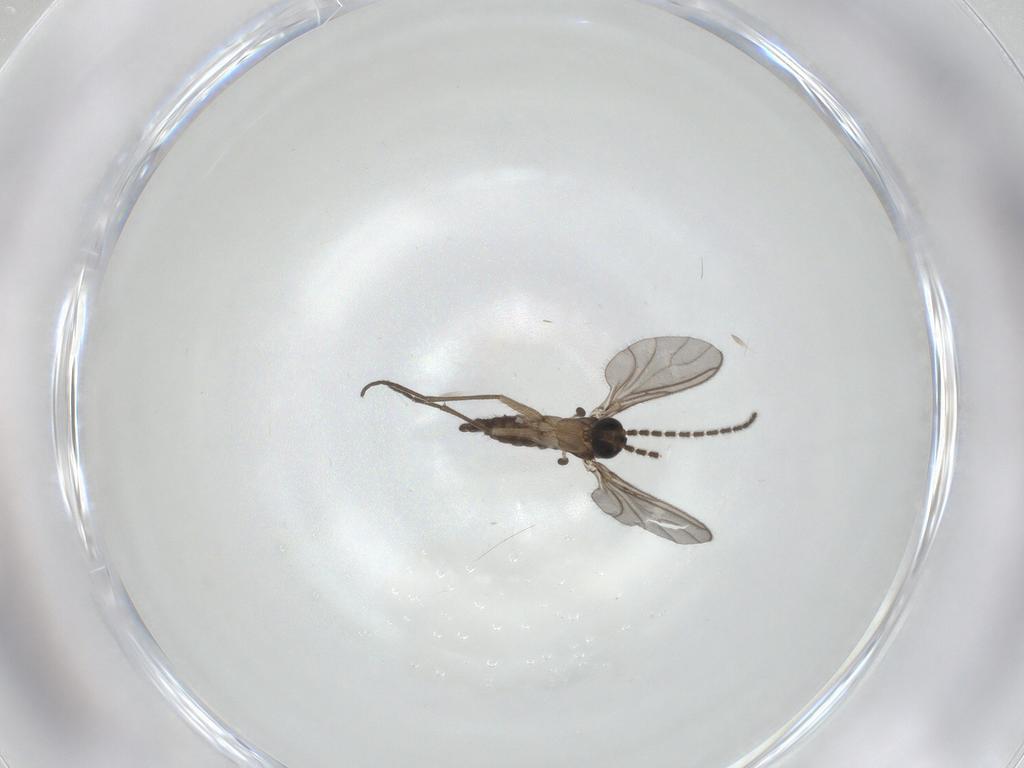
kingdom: Animalia
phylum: Arthropoda
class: Insecta
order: Diptera
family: Sciaridae
